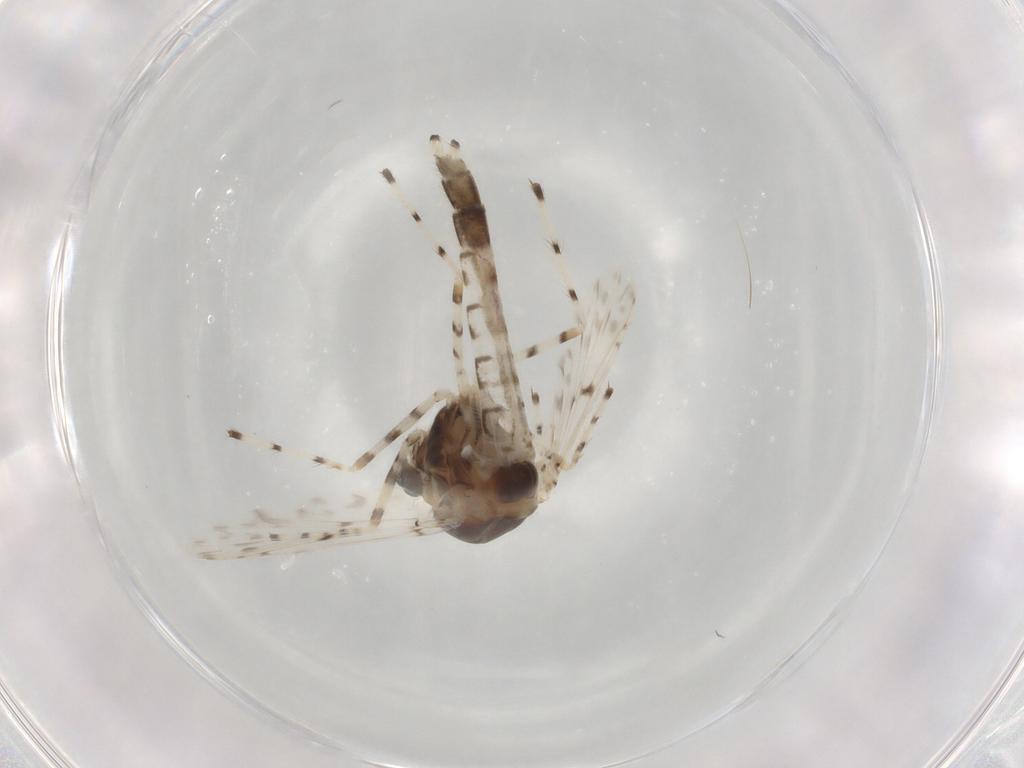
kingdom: Animalia
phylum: Arthropoda
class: Insecta
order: Diptera
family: Chironomidae
